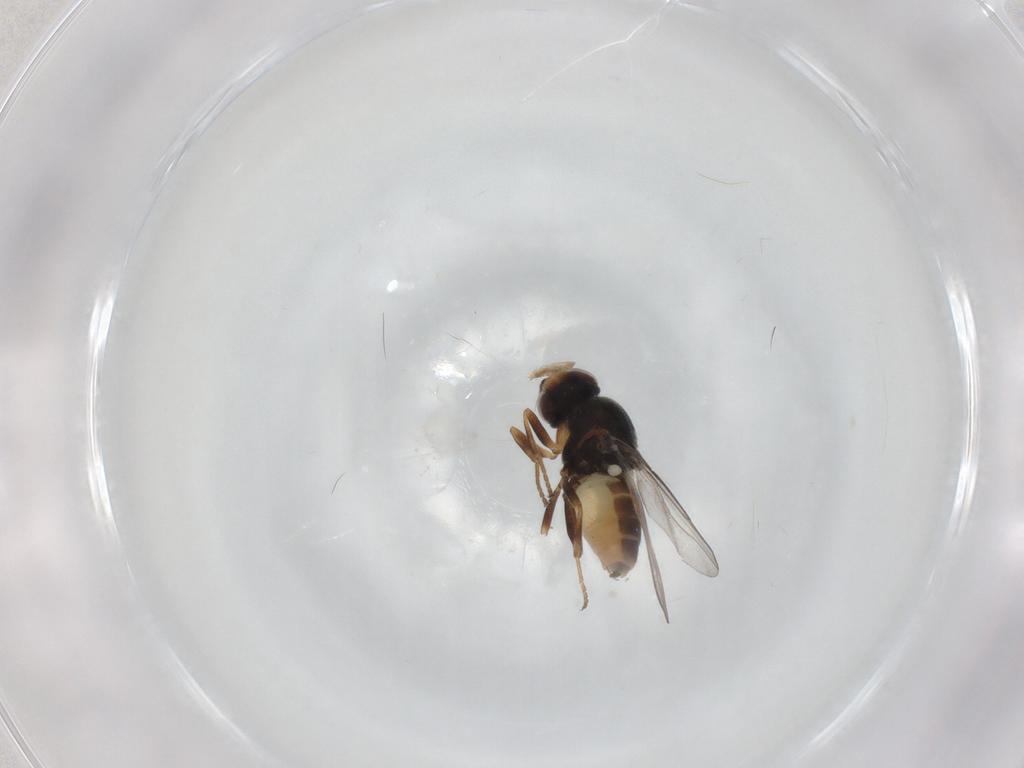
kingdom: Animalia
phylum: Arthropoda
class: Insecta
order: Diptera
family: Chloropidae
